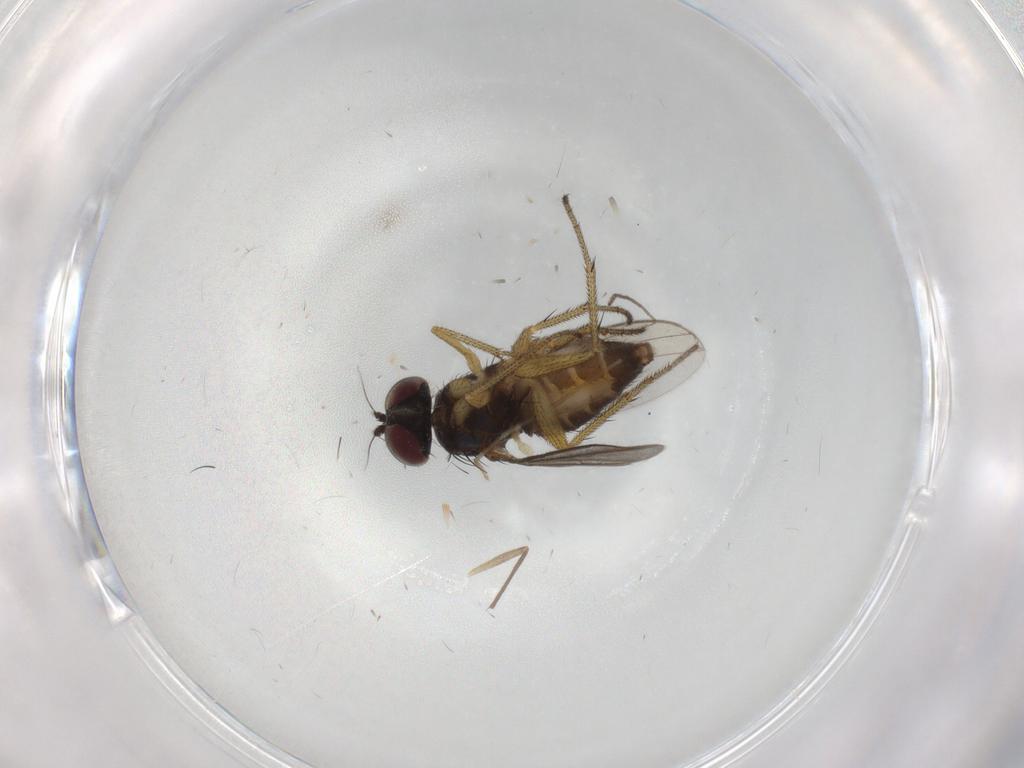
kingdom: Animalia
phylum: Arthropoda
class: Insecta
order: Diptera
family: Dolichopodidae
